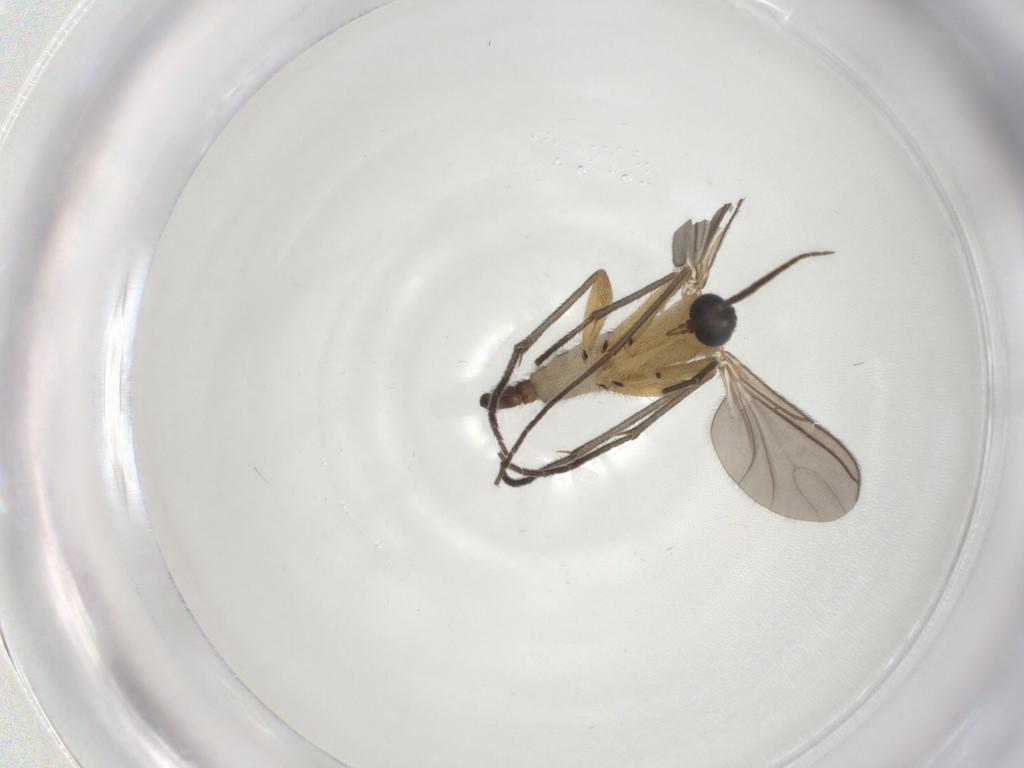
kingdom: Animalia
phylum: Arthropoda
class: Insecta
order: Diptera
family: Sciaridae
